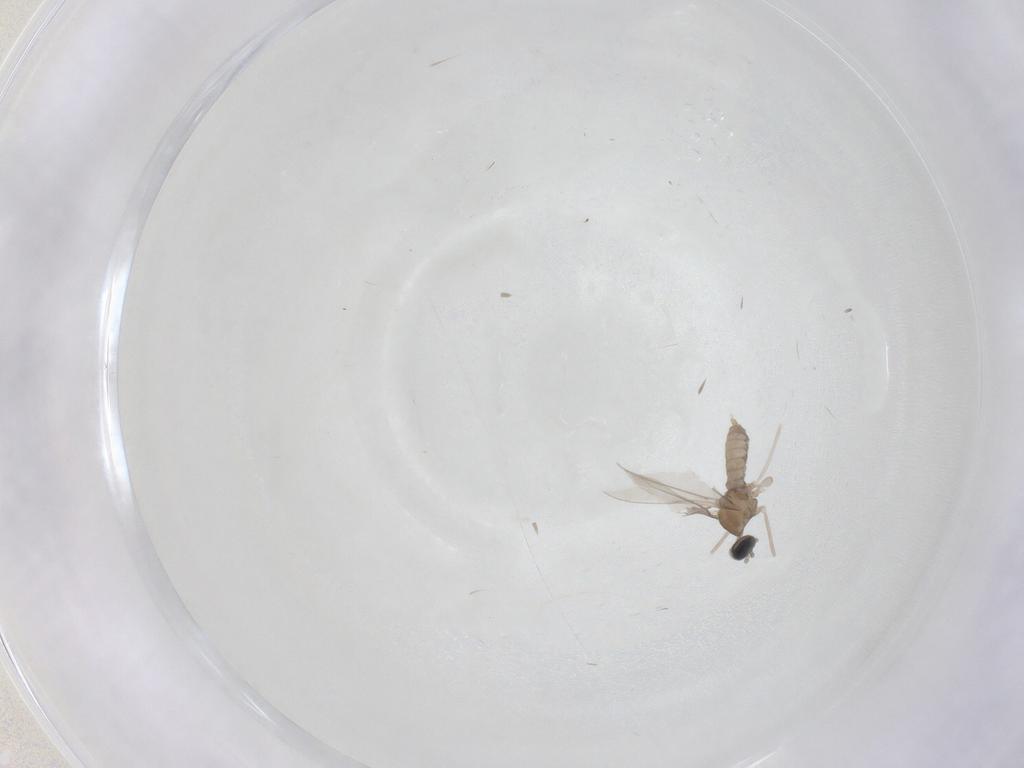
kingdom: Animalia
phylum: Arthropoda
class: Insecta
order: Diptera
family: Cecidomyiidae
